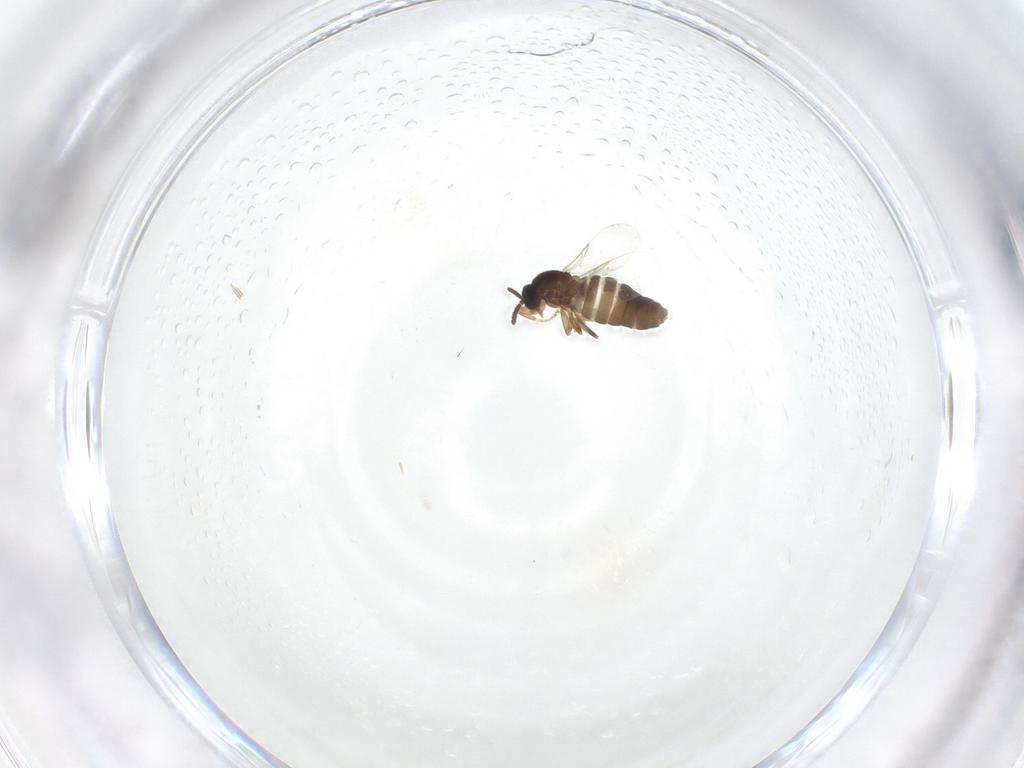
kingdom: Animalia
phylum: Arthropoda
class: Insecta
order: Diptera
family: Scatopsidae
